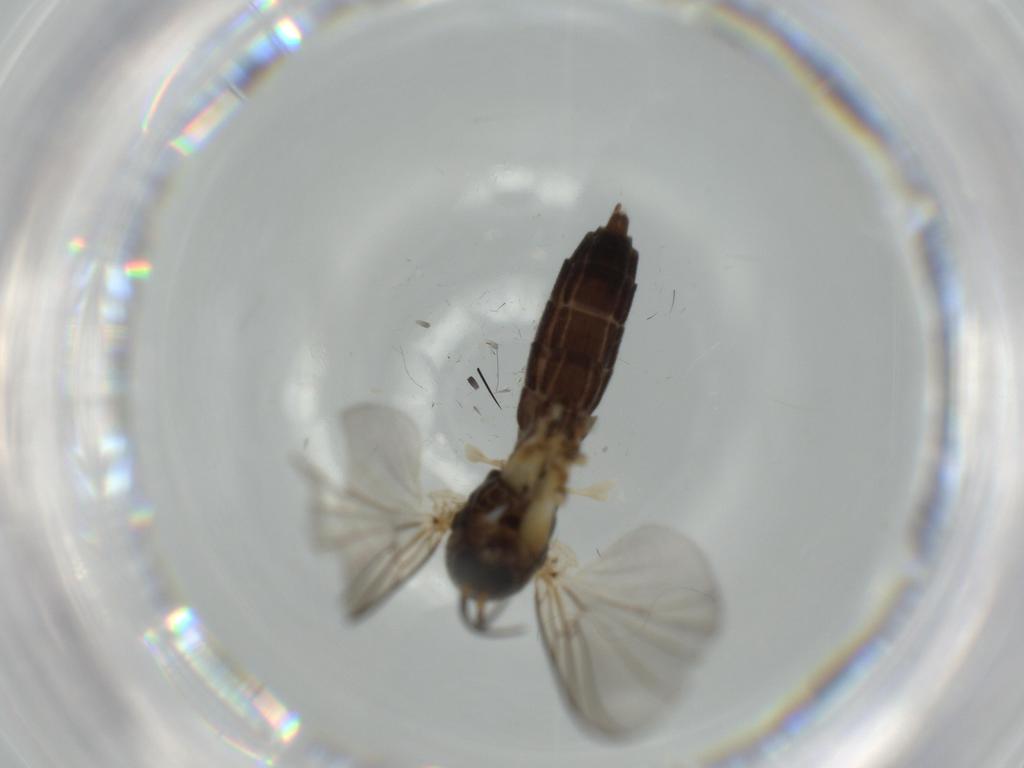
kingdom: Animalia
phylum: Arthropoda
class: Insecta
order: Diptera
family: Mycetophilidae
